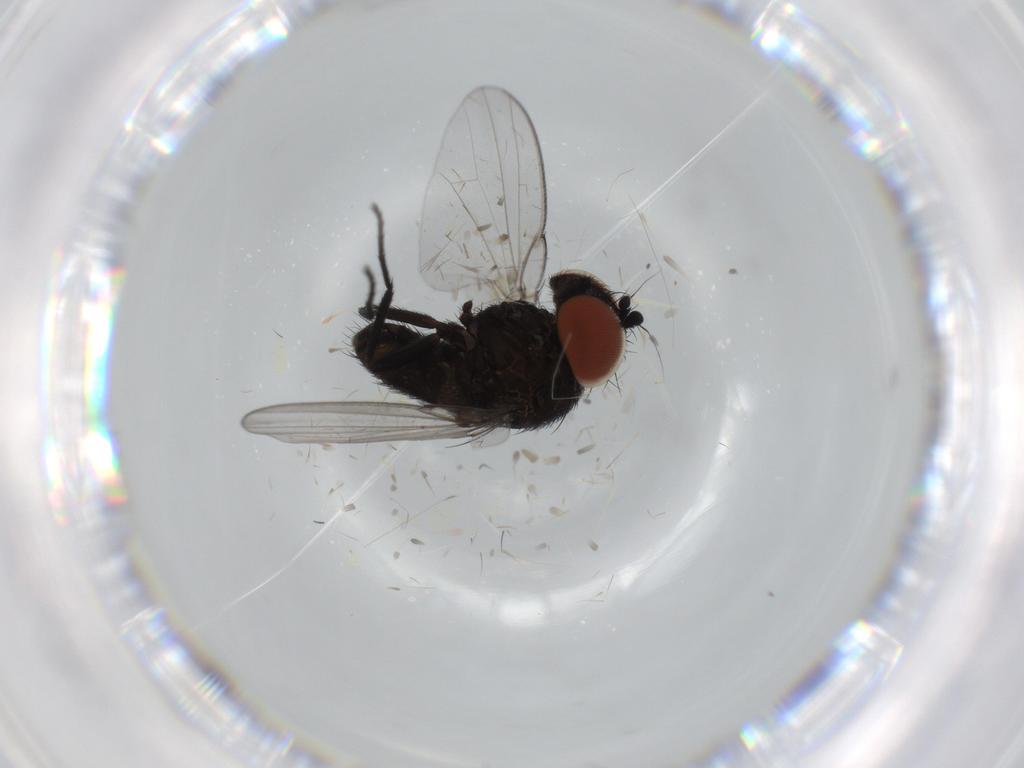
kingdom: Animalia
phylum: Arthropoda
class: Insecta
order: Diptera
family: Milichiidae
